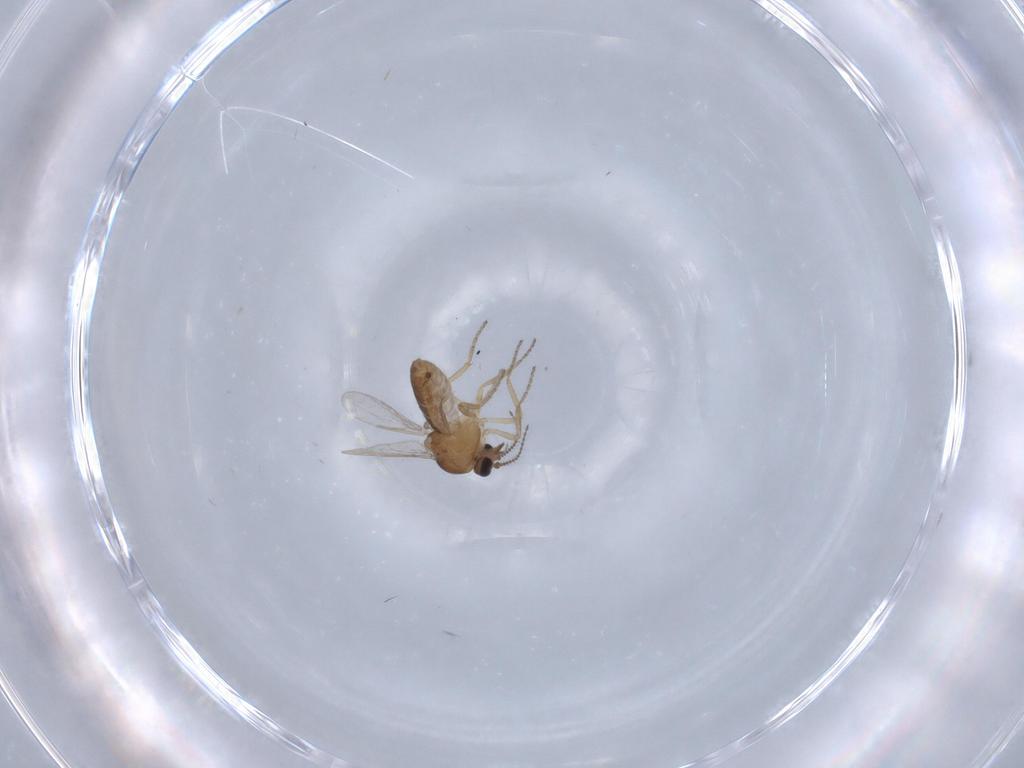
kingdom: Animalia
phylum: Arthropoda
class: Insecta
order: Diptera
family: Ceratopogonidae
